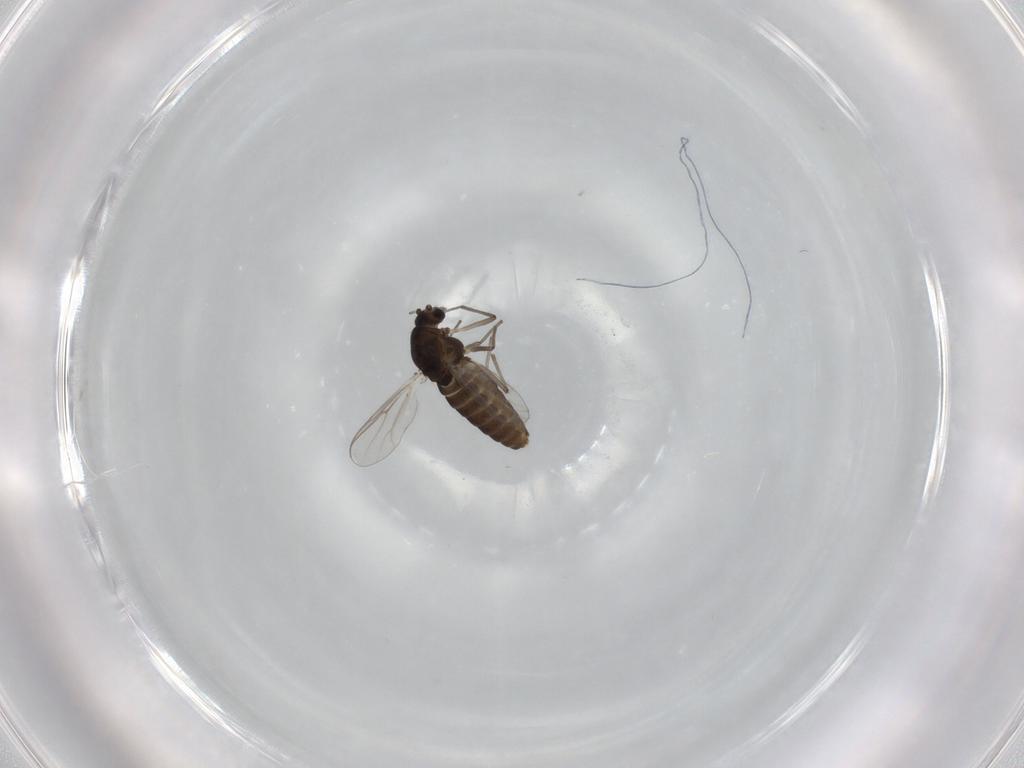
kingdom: Animalia
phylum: Arthropoda
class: Insecta
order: Diptera
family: Chironomidae
